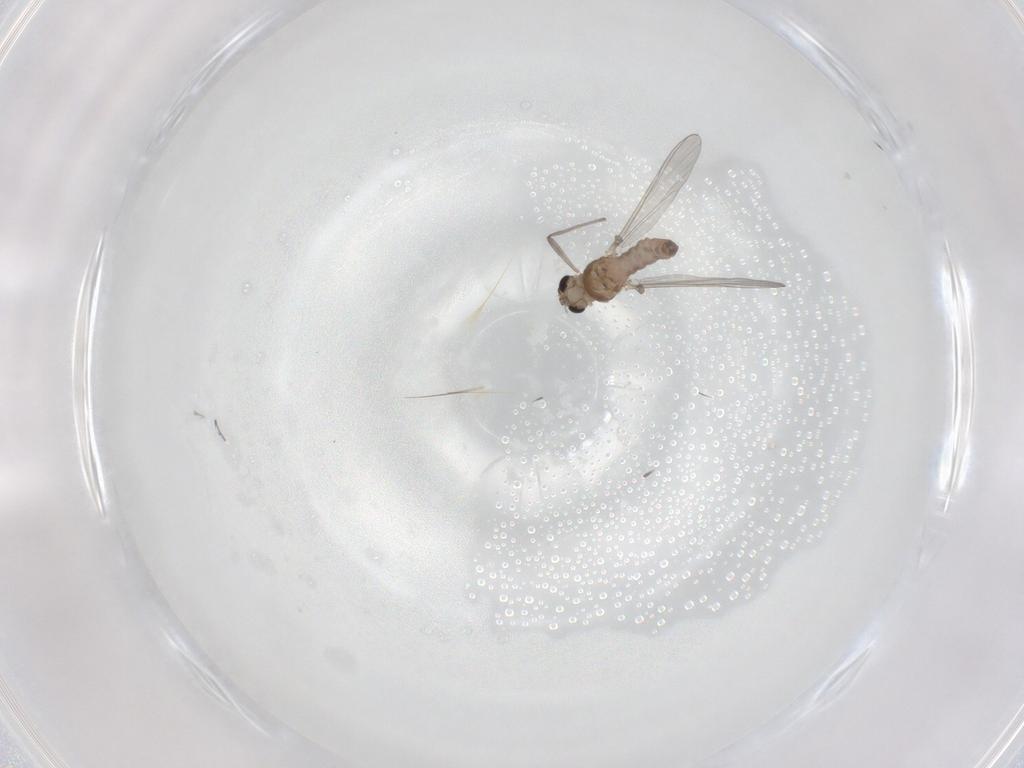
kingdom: Animalia
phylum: Arthropoda
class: Insecta
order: Diptera
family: Chironomidae
